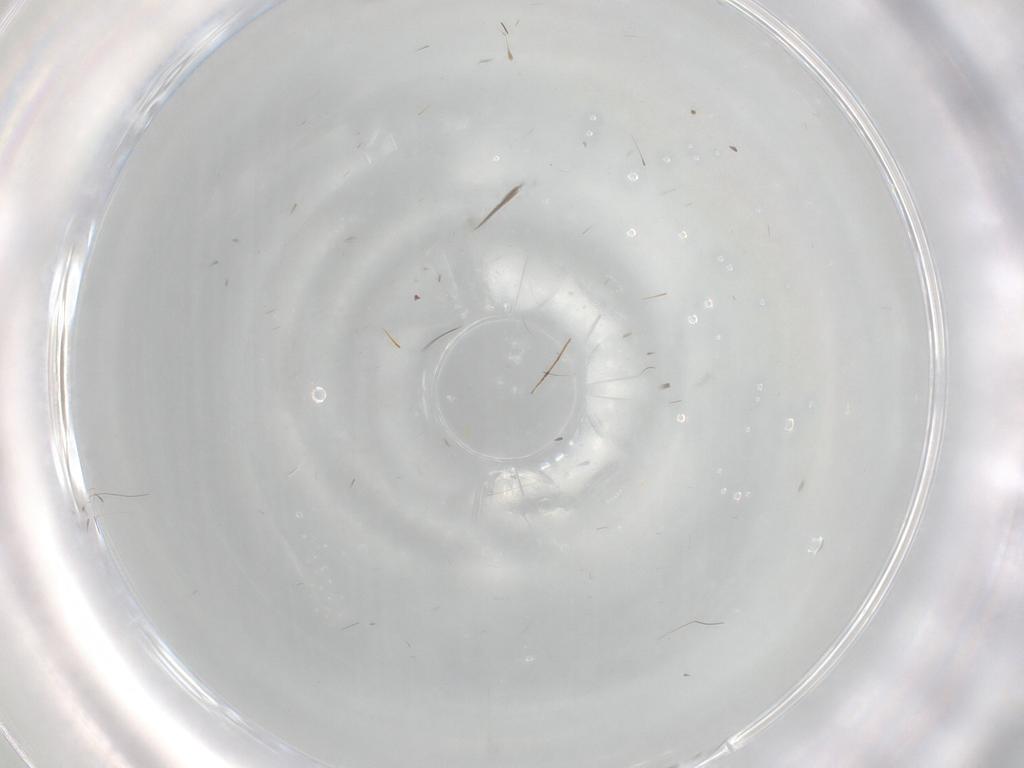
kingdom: Animalia
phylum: Arthropoda
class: Insecta
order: Diptera
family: Cecidomyiidae
